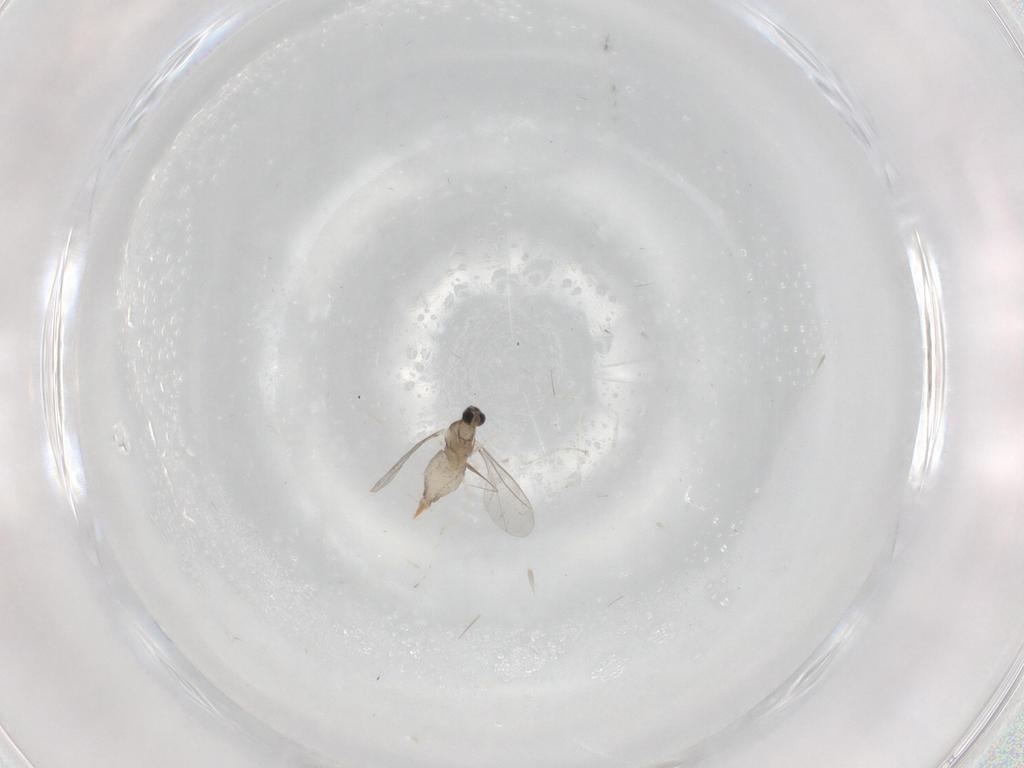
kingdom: Animalia
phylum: Arthropoda
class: Insecta
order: Diptera
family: Cecidomyiidae
